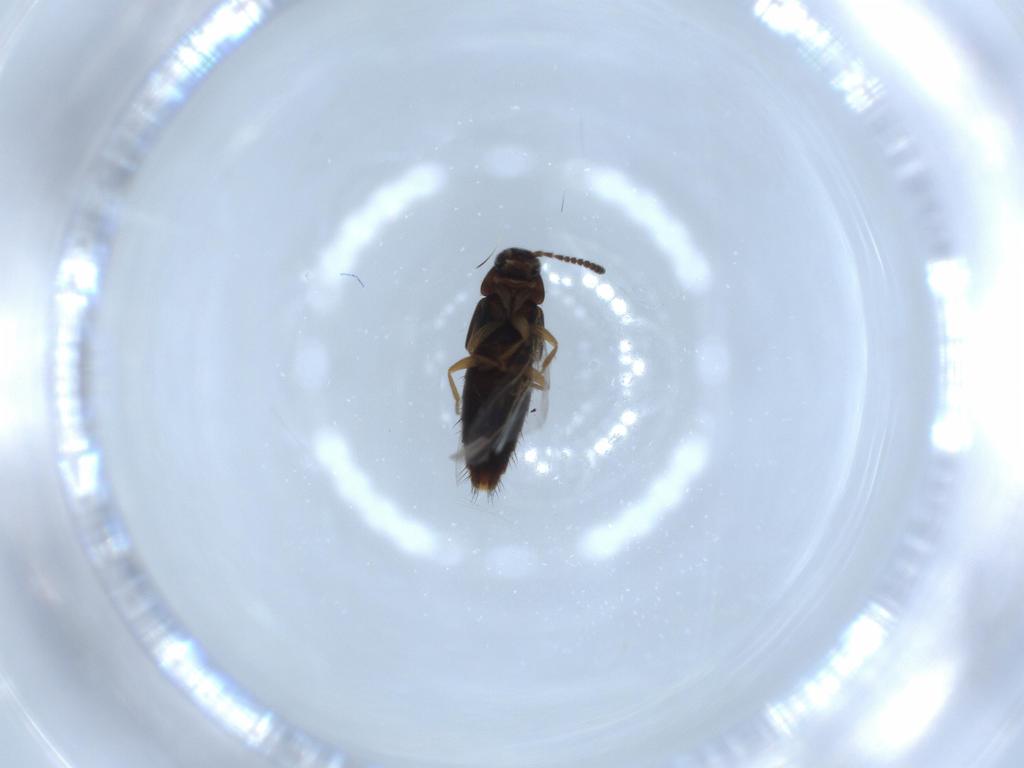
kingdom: Animalia
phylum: Arthropoda
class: Insecta
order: Coleoptera
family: Staphylinidae
